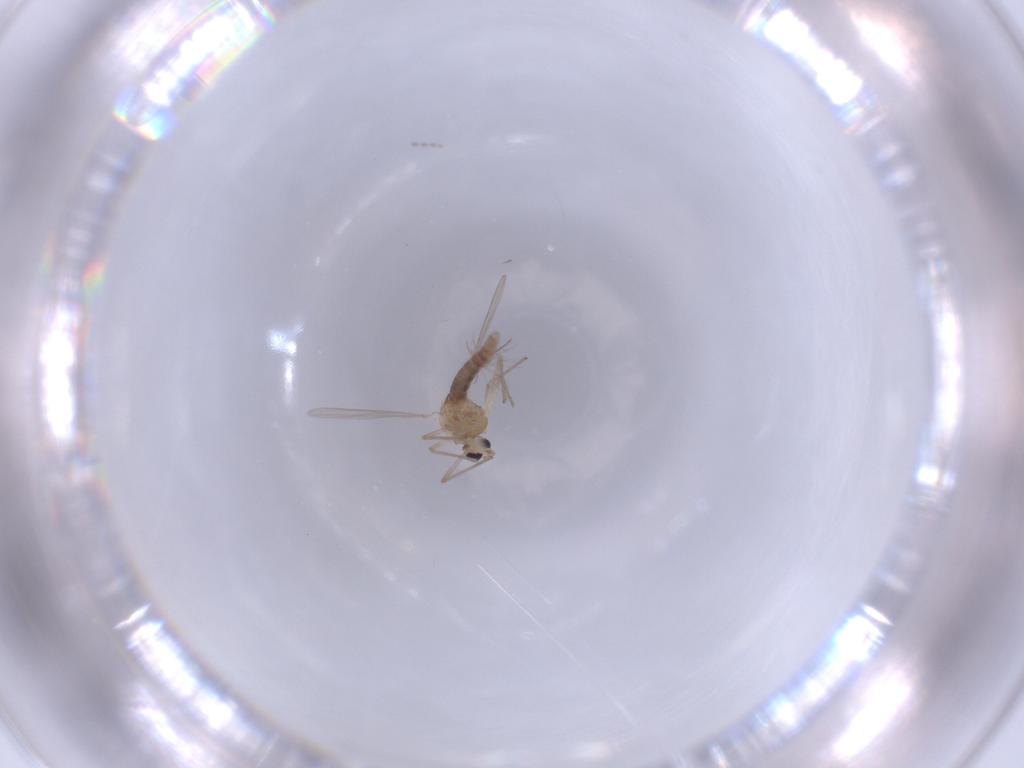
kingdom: Animalia
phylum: Arthropoda
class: Insecta
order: Diptera
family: Chironomidae
